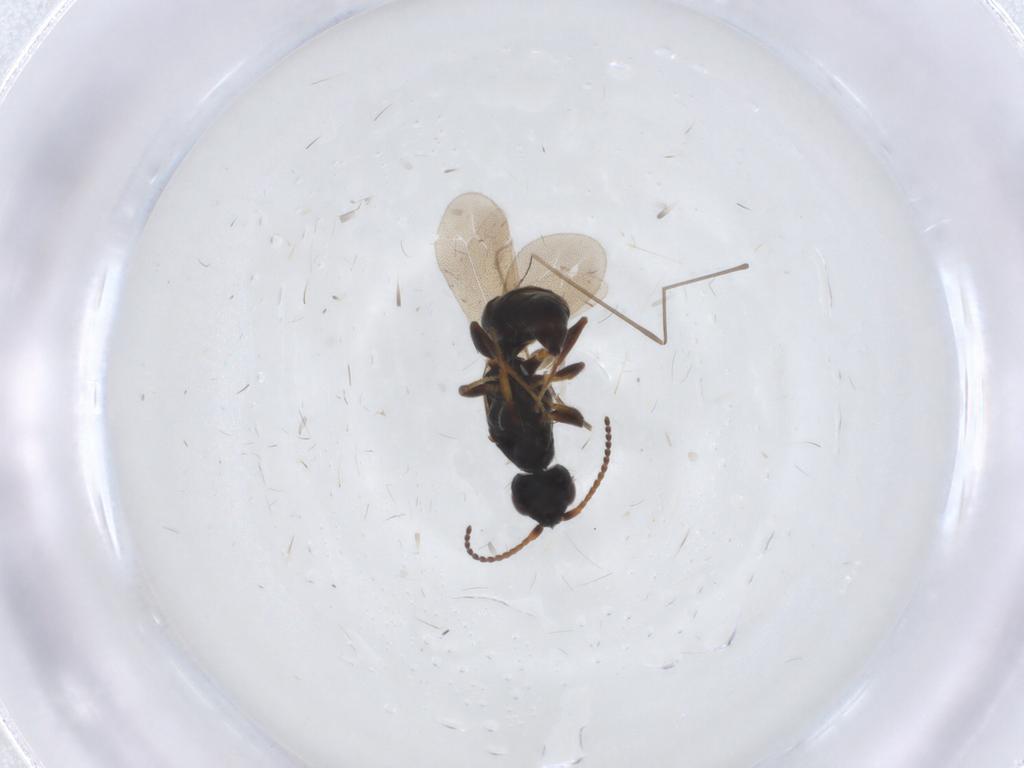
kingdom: Animalia
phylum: Arthropoda
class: Insecta
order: Hymenoptera
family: Bethylidae
